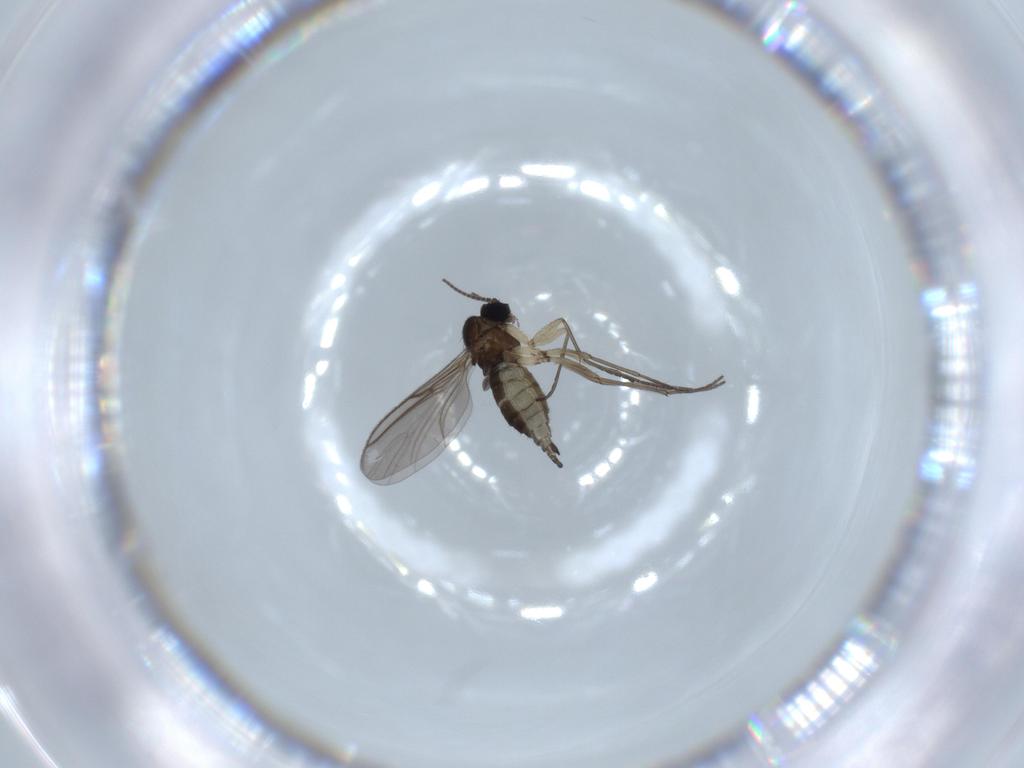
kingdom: Animalia
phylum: Arthropoda
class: Insecta
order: Diptera
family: Sciaridae
